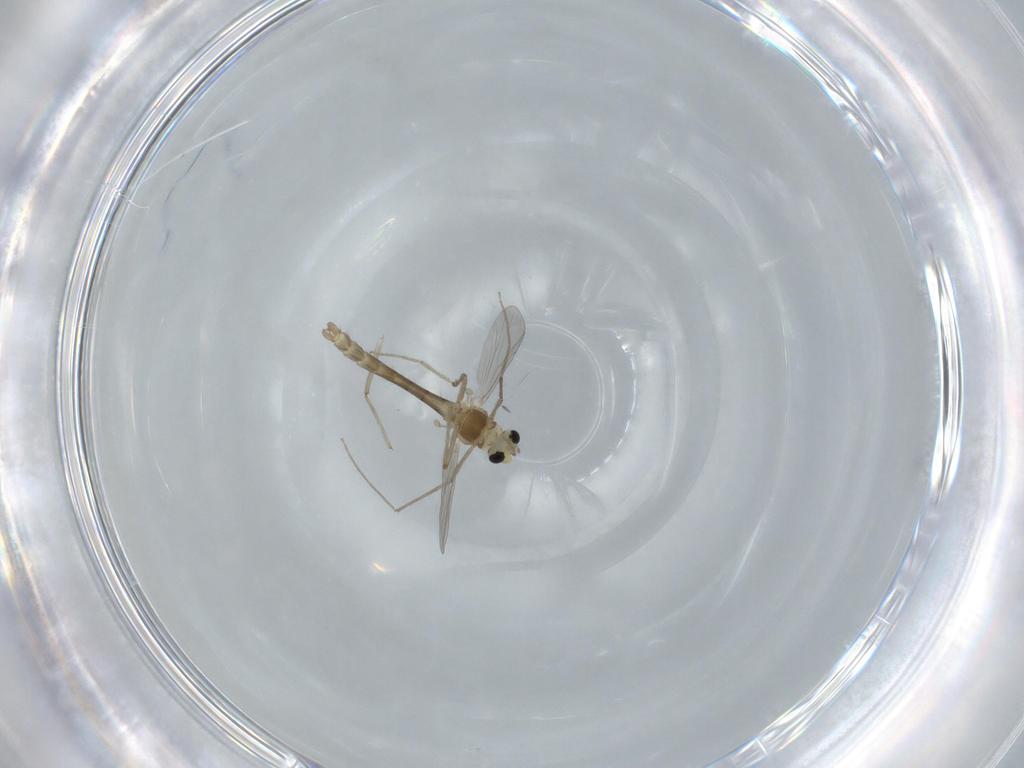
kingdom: Animalia
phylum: Arthropoda
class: Insecta
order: Diptera
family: Chironomidae
